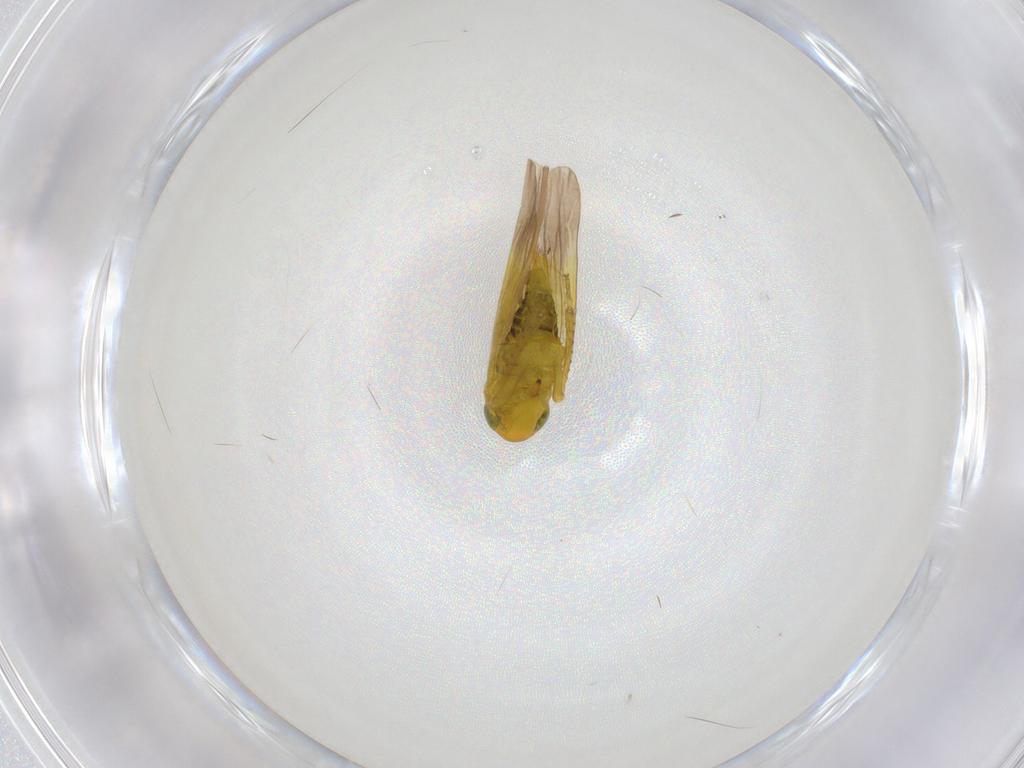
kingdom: Animalia
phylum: Arthropoda
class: Insecta
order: Hemiptera
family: Cicadellidae
